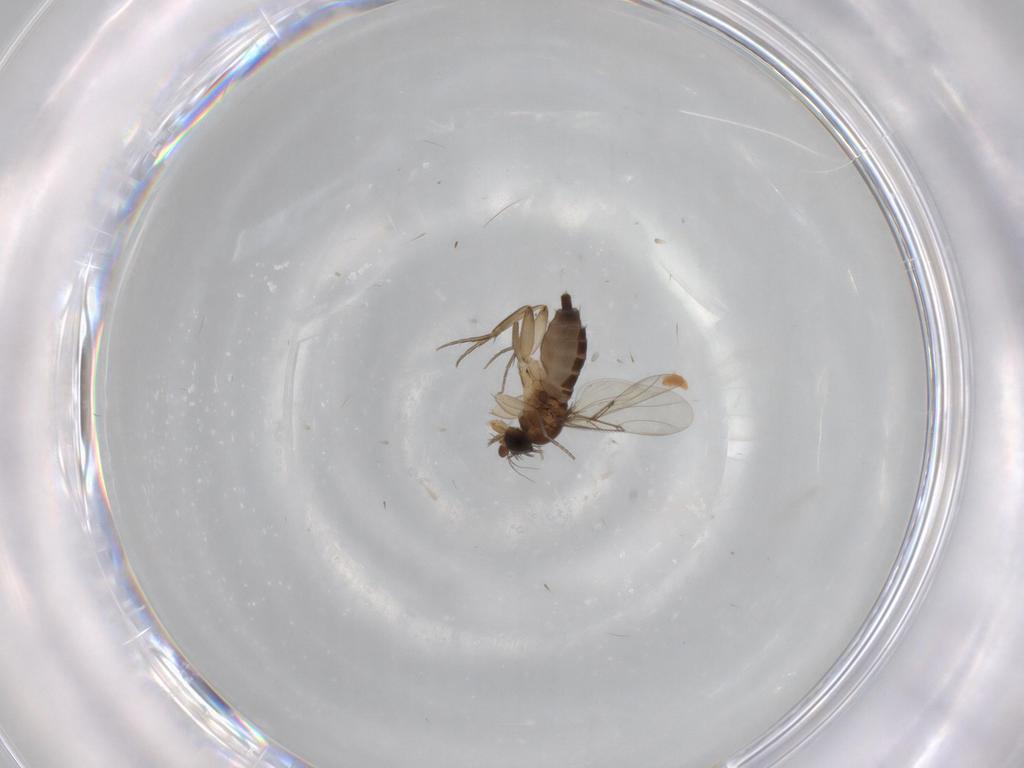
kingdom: Animalia
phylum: Arthropoda
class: Insecta
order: Diptera
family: Phoridae
